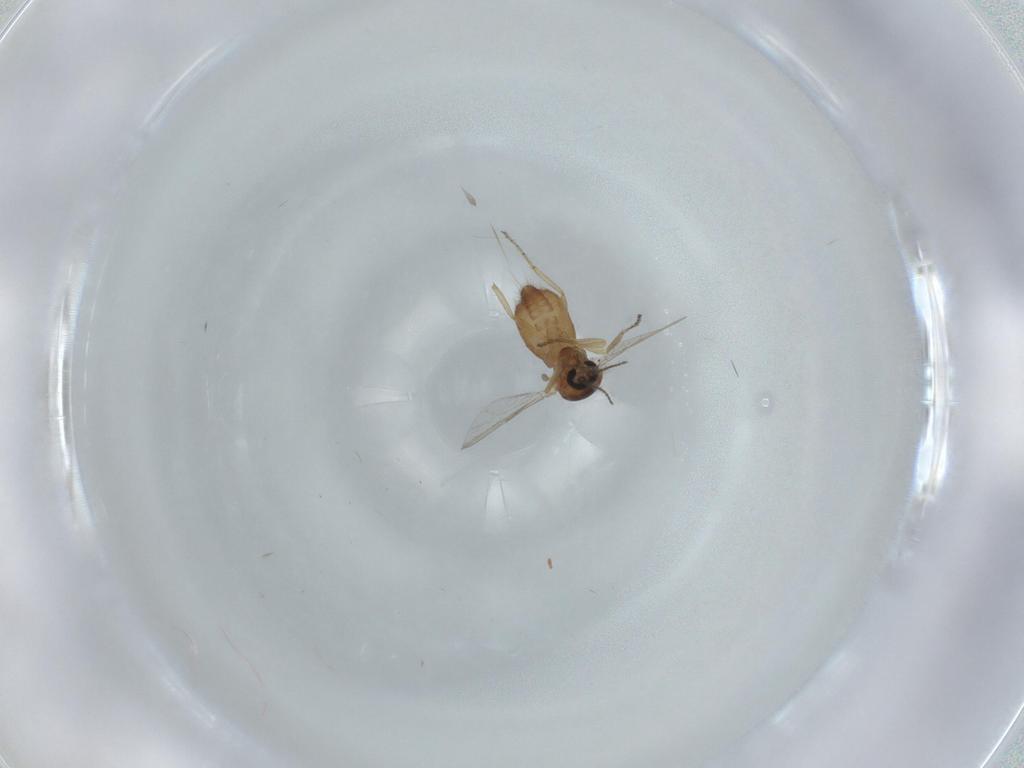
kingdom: Animalia
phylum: Arthropoda
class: Insecta
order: Diptera
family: Ceratopogonidae
